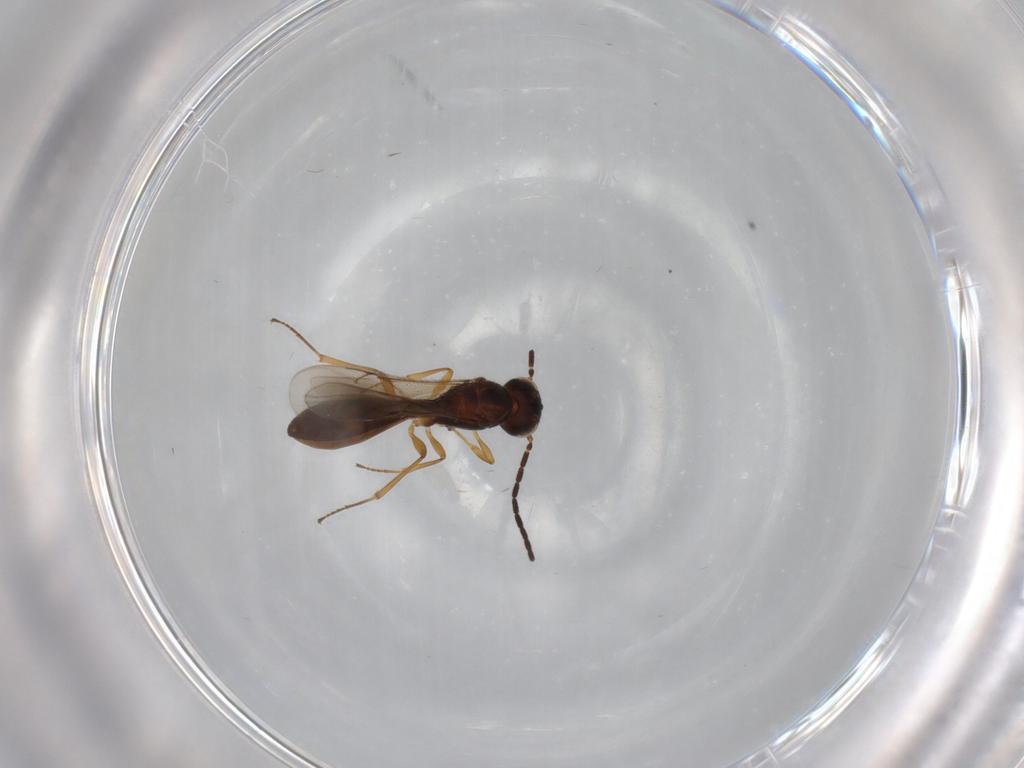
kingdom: Animalia
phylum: Arthropoda
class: Insecta
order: Hymenoptera
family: Scelionidae
